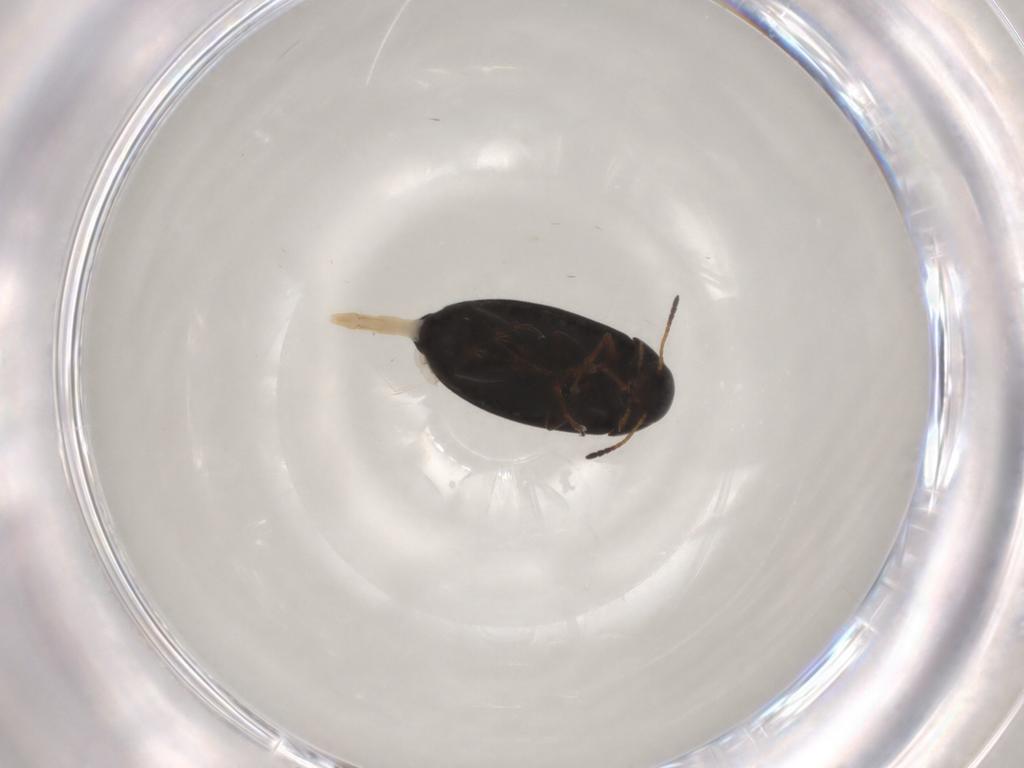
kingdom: Animalia
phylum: Arthropoda
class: Insecta
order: Coleoptera
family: Scraptiidae
